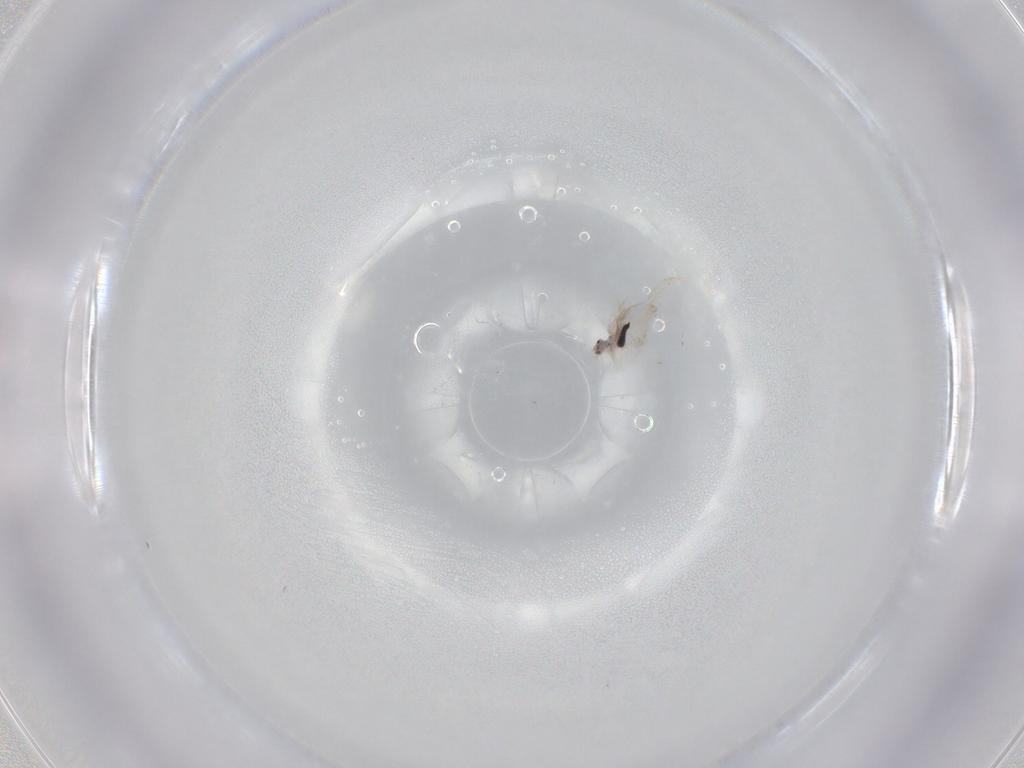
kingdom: Animalia
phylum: Arthropoda
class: Collembola
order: Entomobryomorpha
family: Entomobryidae
